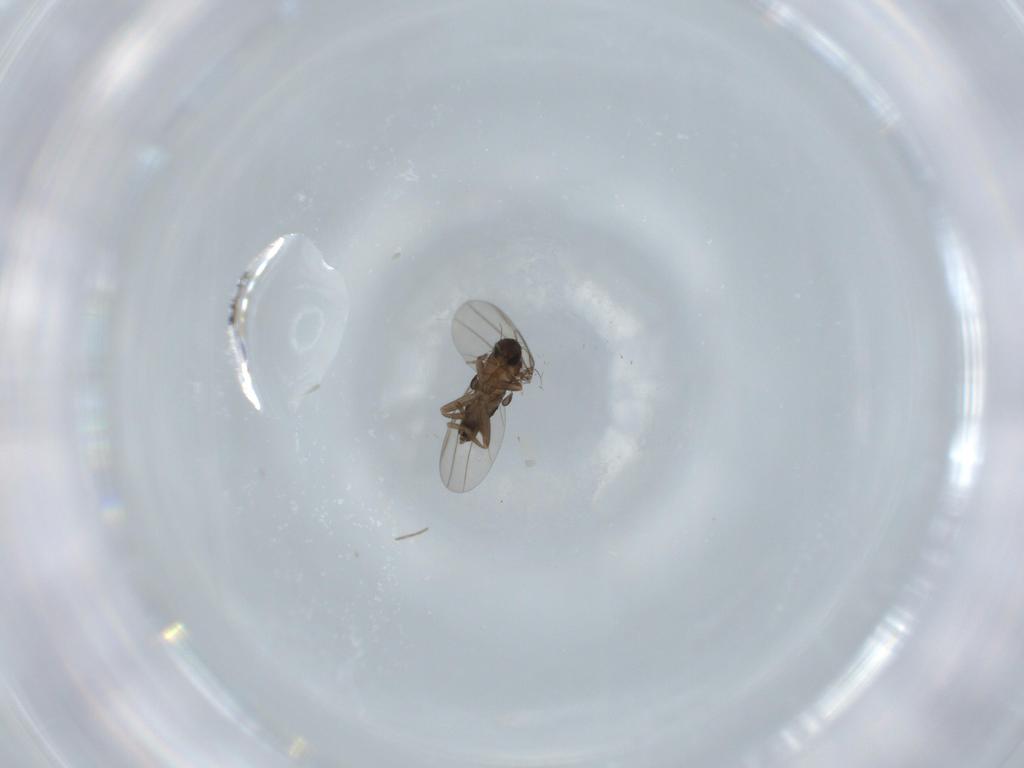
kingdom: Animalia
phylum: Arthropoda
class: Insecta
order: Diptera
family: Phoridae
